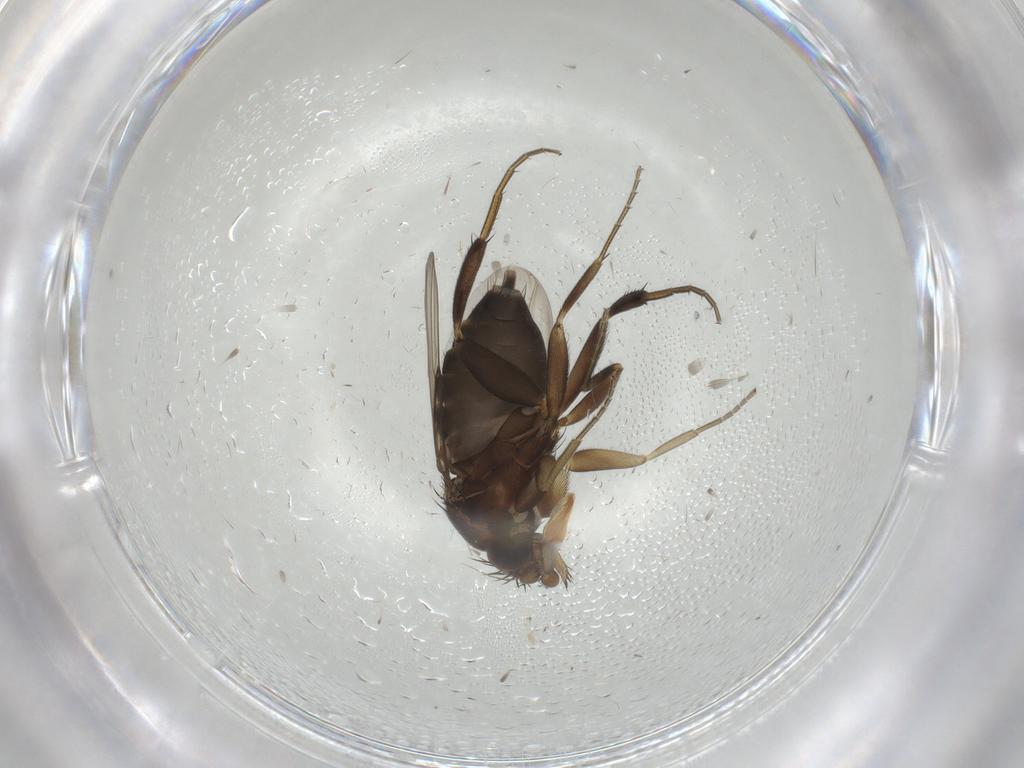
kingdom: Animalia
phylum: Arthropoda
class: Insecta
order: Diptera
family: Phoridae
